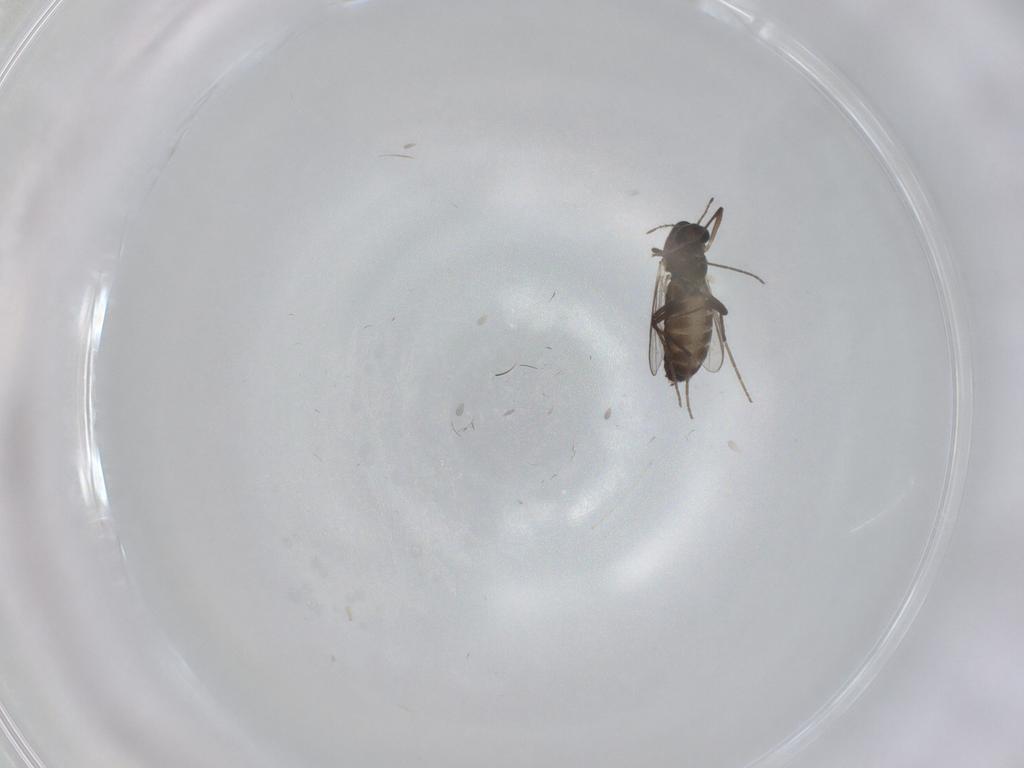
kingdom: Animalia
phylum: Arthropoda
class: Insecta
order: Diptera
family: Chironomidae
